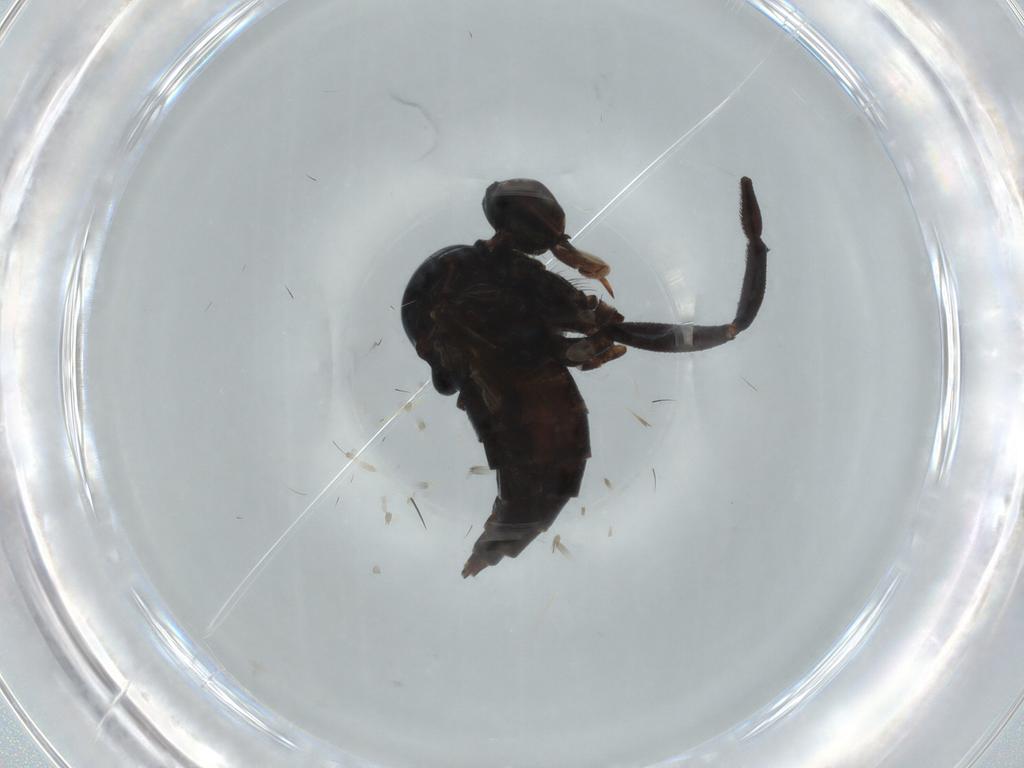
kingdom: Animalia
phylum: Arthropoda
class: Insecta
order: Diptera
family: Empididae
